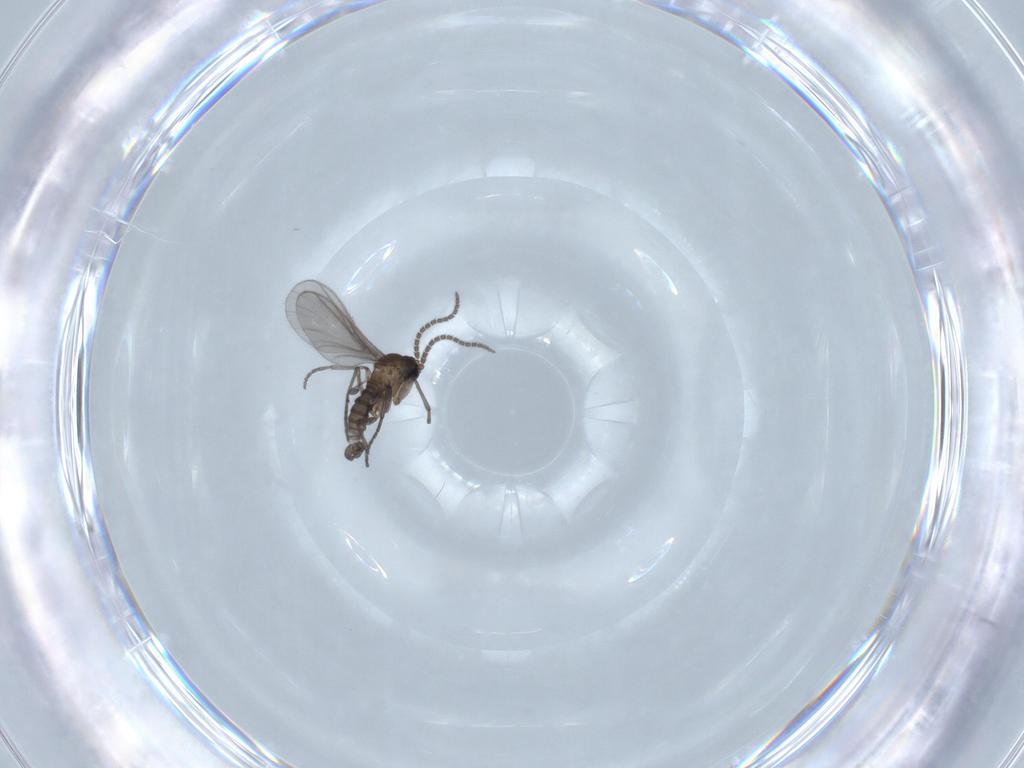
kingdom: Animalia
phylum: Arthropoda
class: Insecta
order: Diptera
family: Sciaridae
